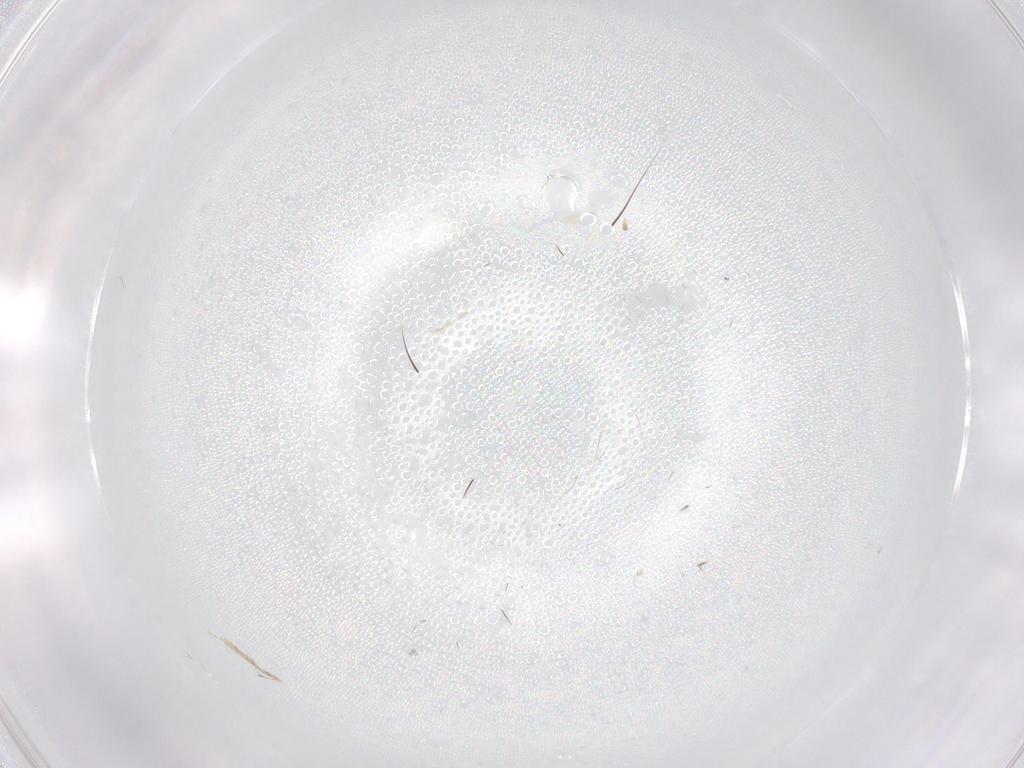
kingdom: Animalia
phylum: Arthropoda
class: Insecta
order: Diptera
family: Cecidomyiidae
